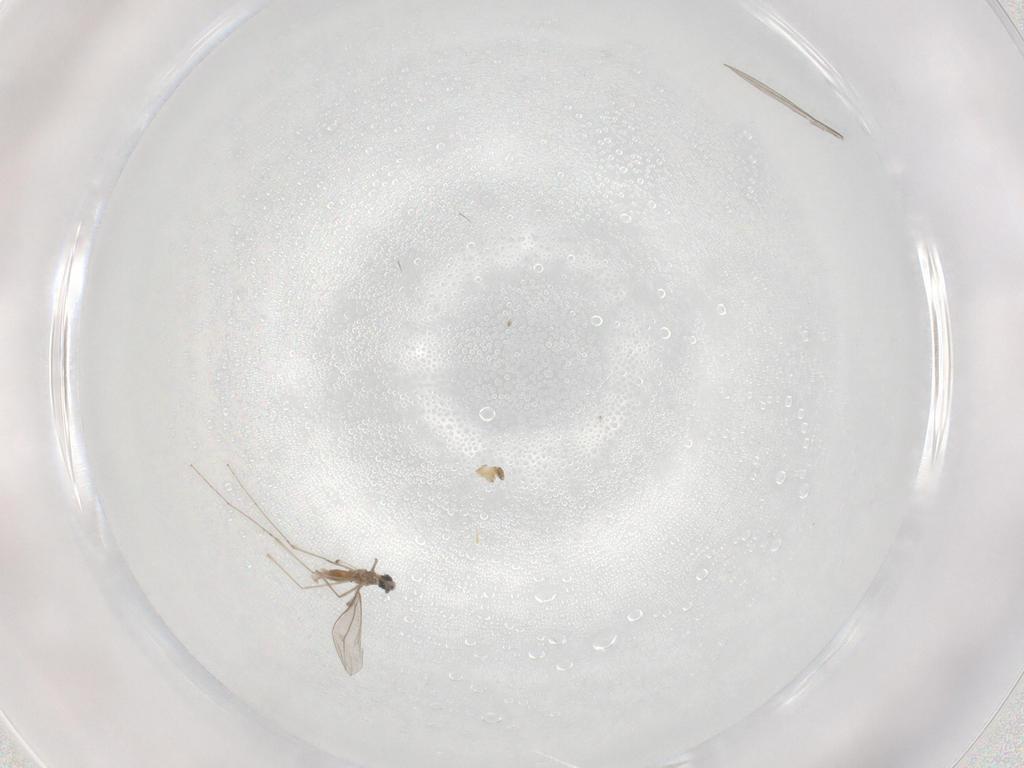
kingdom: Animalia
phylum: Arthropoda
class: Insecta
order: Diptera
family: Cecidomyiidae
